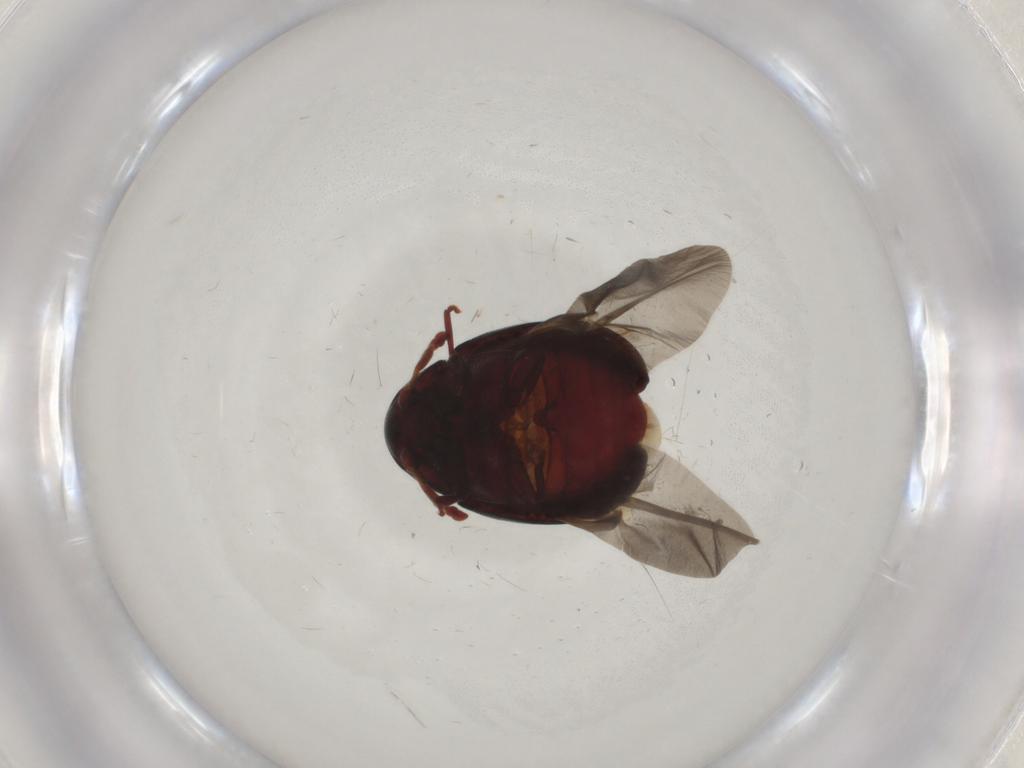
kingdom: Animalia
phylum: Arthropoda
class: Insecta
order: Coleoptera
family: Ptinidae
